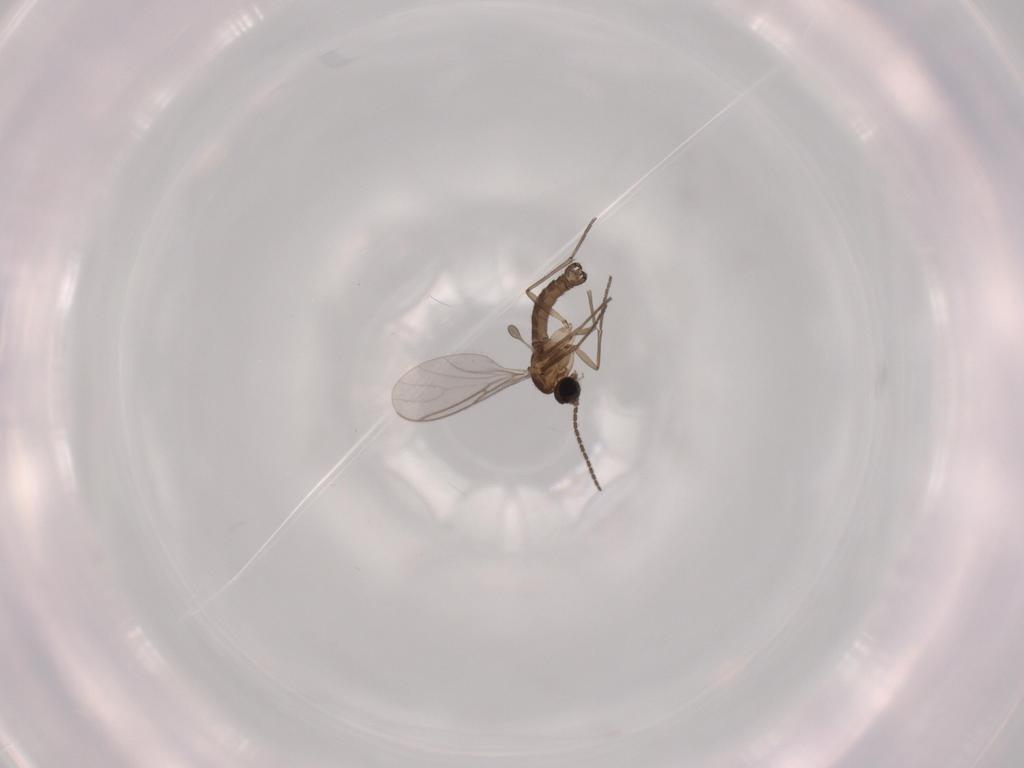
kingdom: Animalia
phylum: Arthropoda
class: Insecta
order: Diptera
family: Sciaridae
